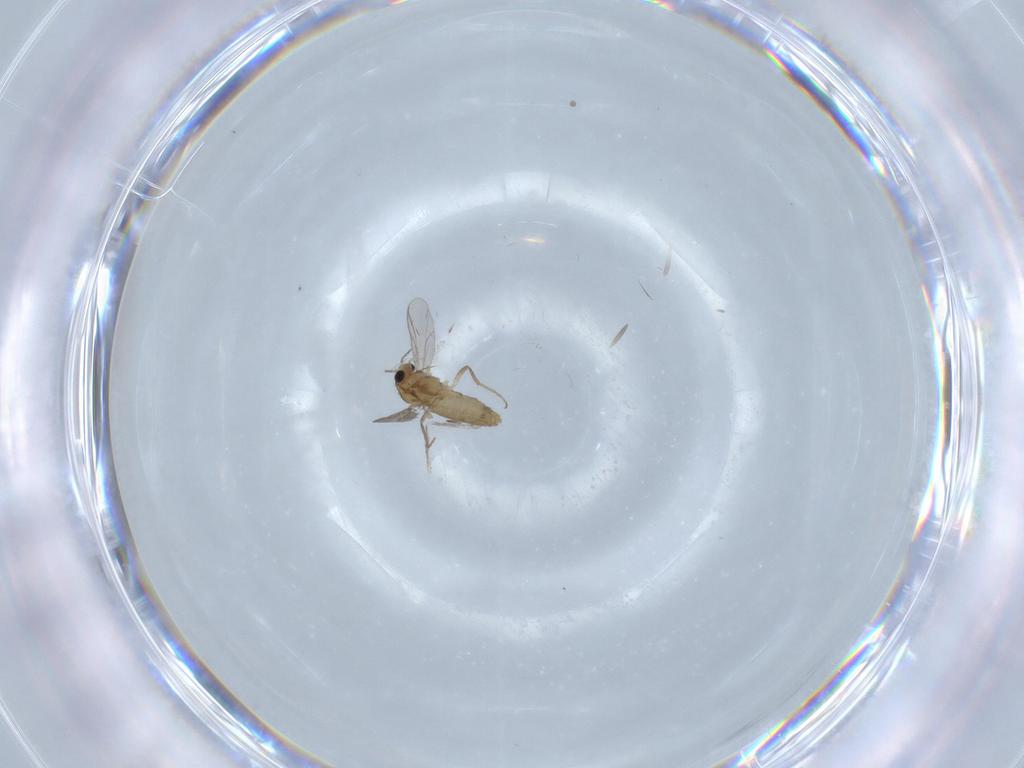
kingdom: Animalia
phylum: Arthropoda
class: Insecta
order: Diptera
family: Chironomidae
